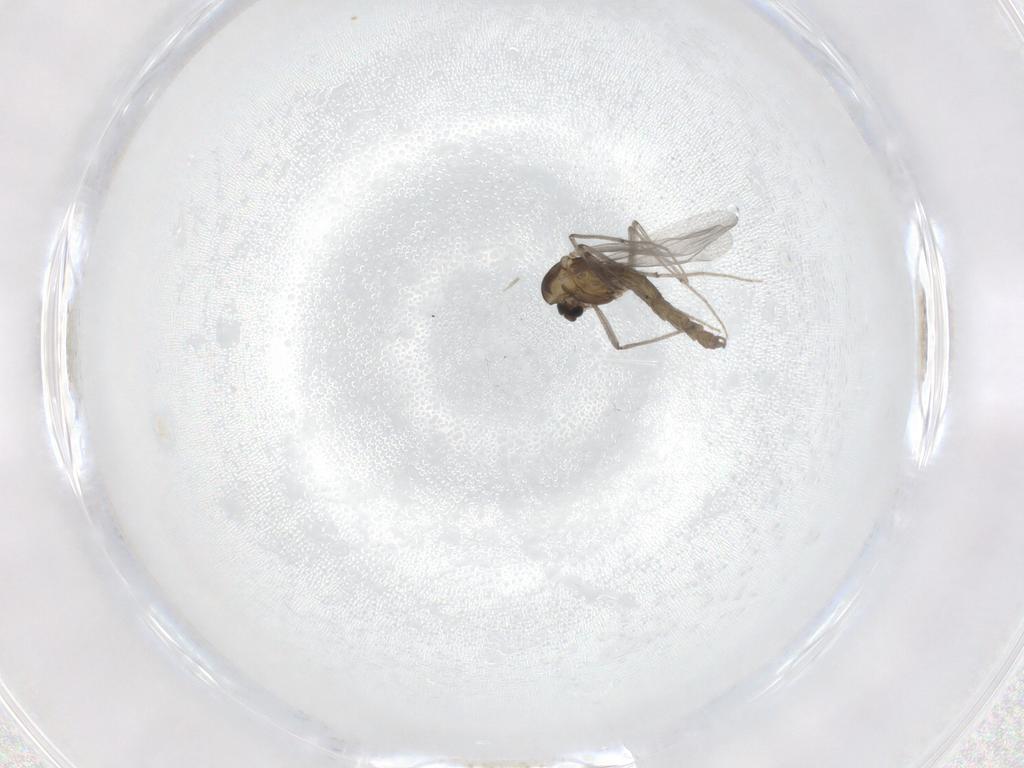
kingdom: Animalia
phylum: Arthropoda
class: Insecta
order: Diptera
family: Chironomidae
